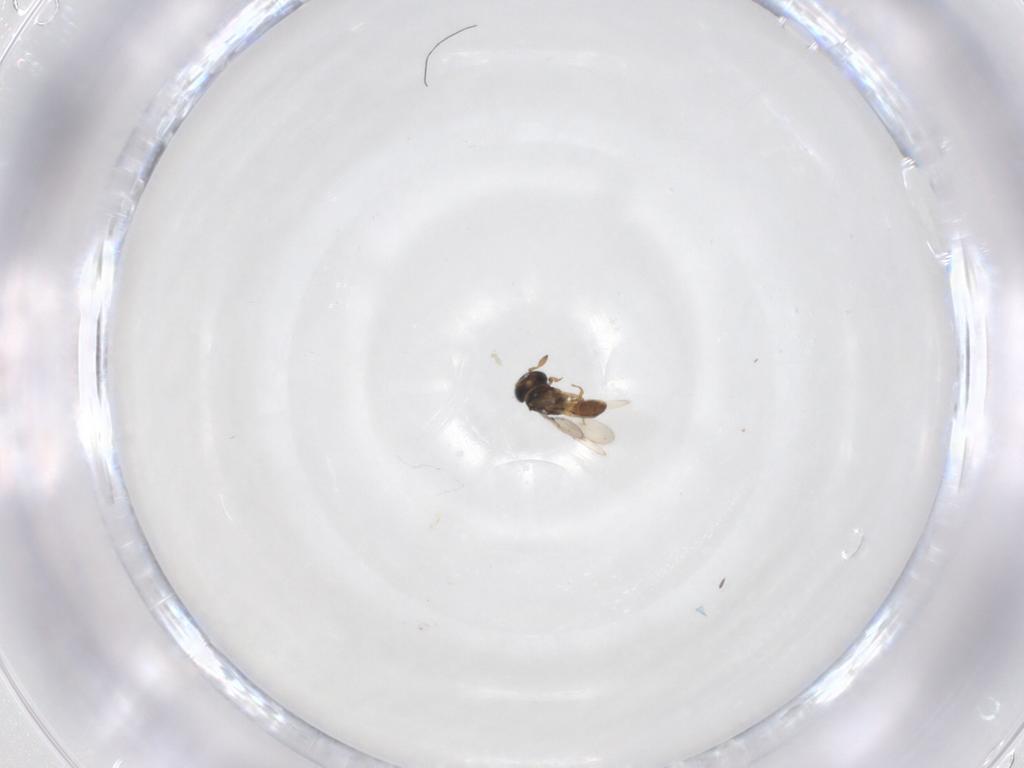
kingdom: Animalia
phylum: Arthropoda
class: Insecta
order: Hymenoptera
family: Scelionidae
